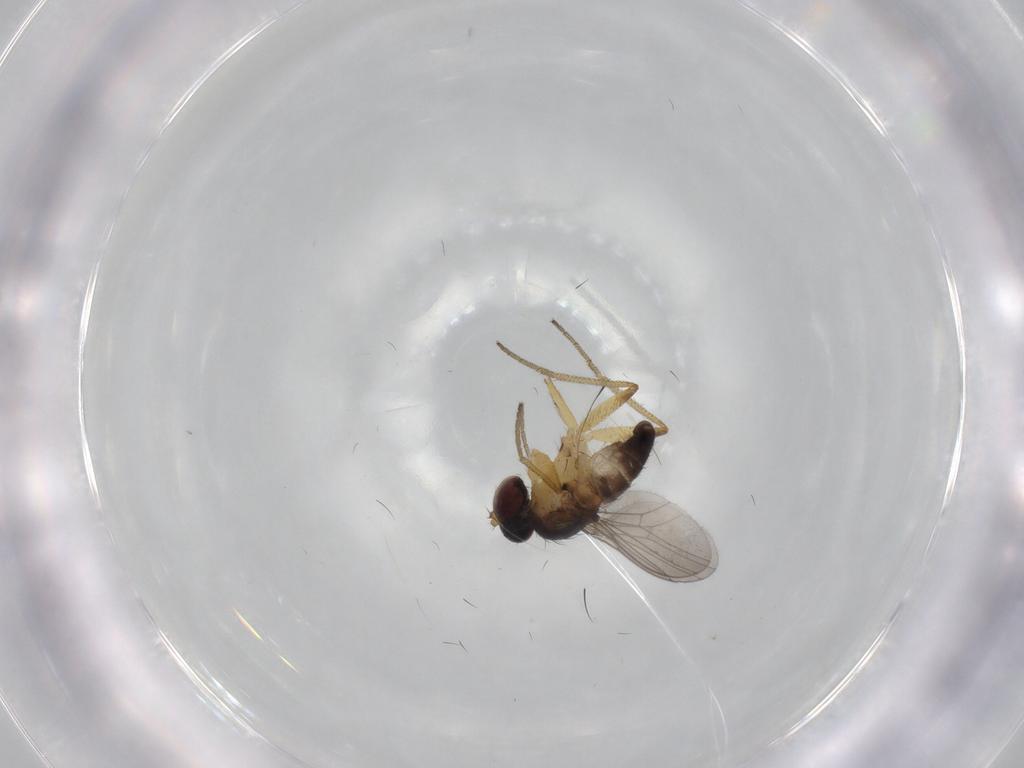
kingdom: Animalia
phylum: Arthropoda
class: Insecta
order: Diptera
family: Dolichopodidae
